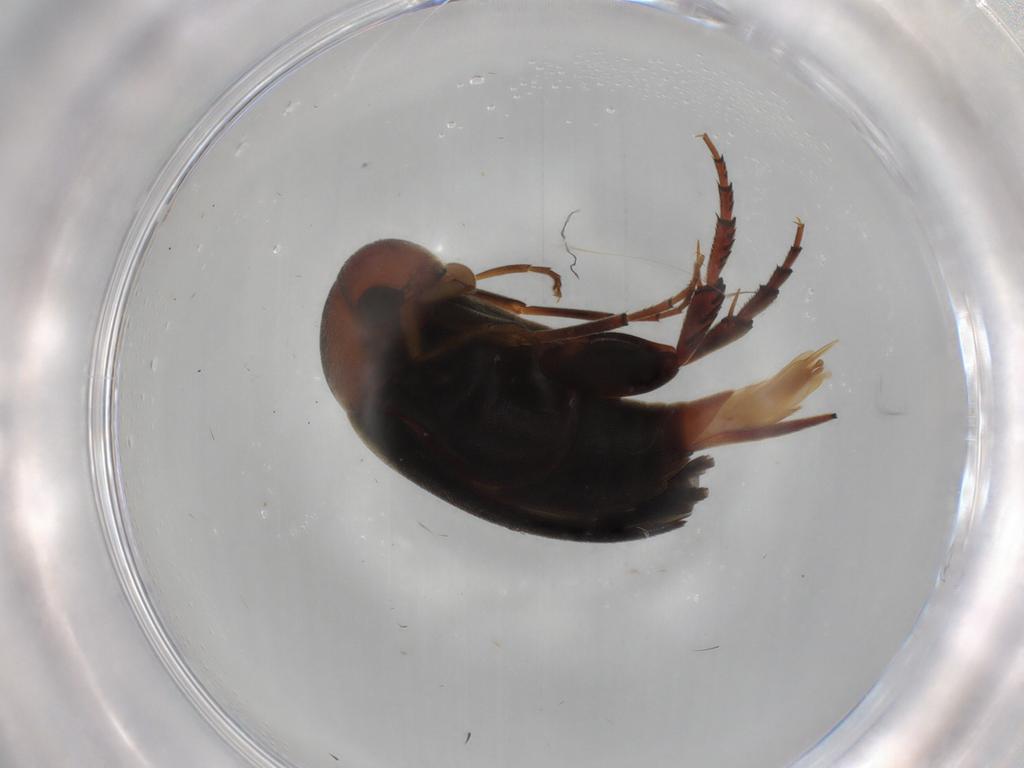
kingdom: Animalia
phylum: Arthropoda
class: Insecta
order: Coleoptera
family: Mordellidae
